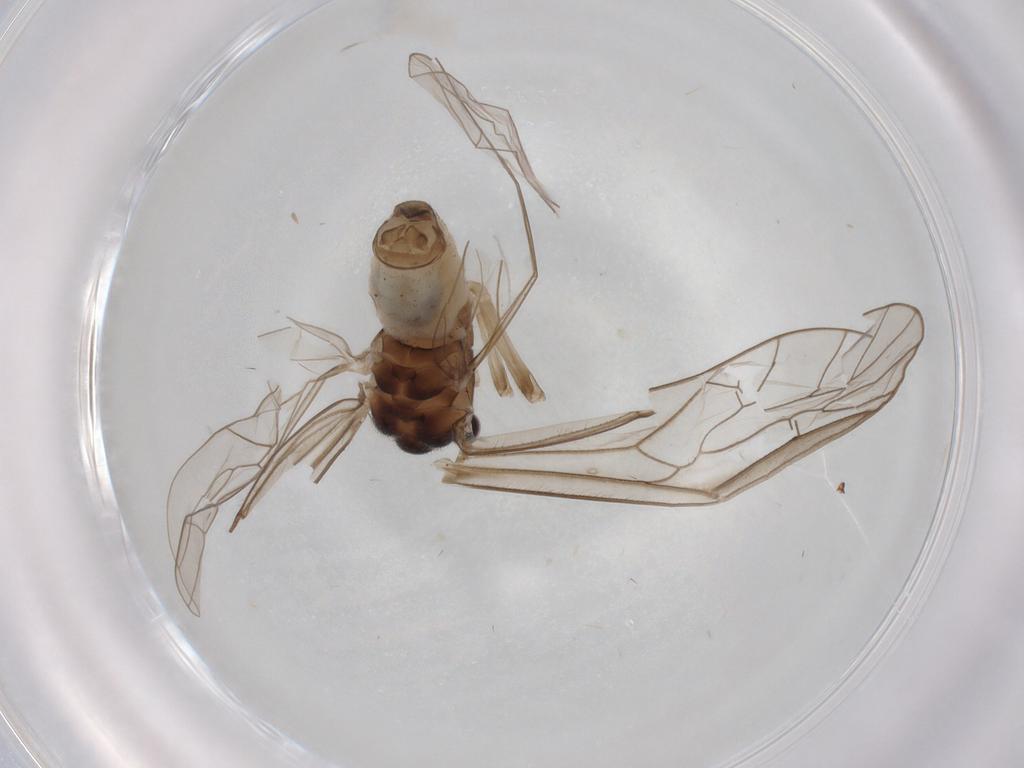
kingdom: Animalia
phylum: Arthropoda
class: Insecta
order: Psocodea
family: Stenopsocidae
